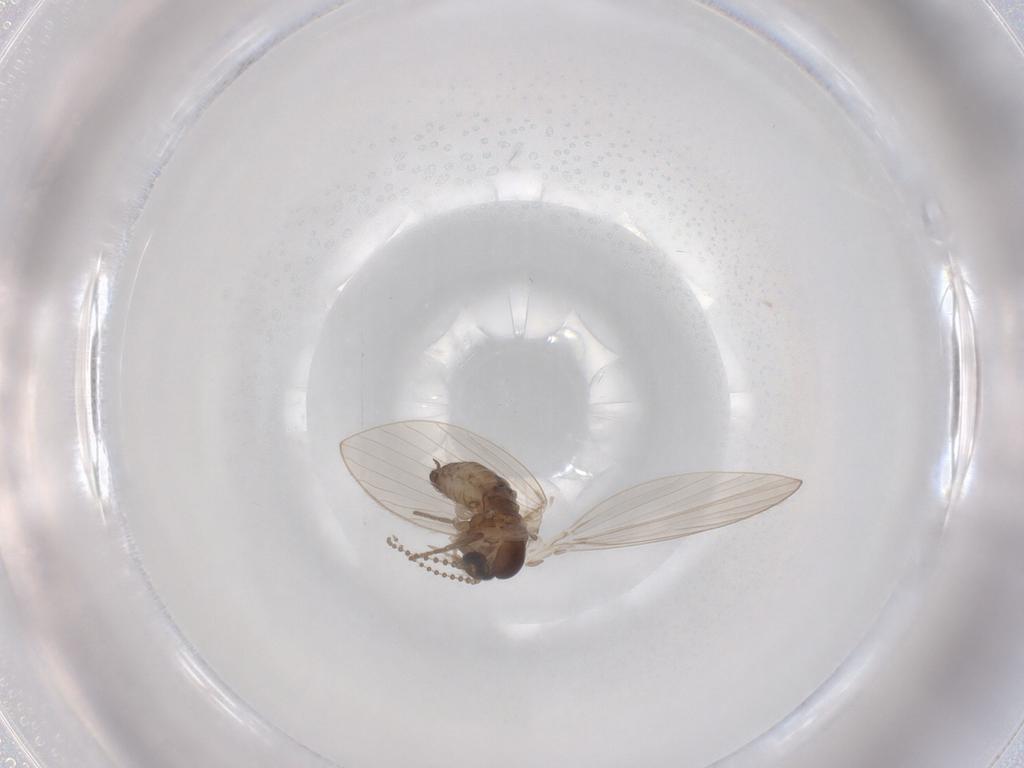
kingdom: Animalia
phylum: Arthropoda
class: Insecta
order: Diptera
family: Psychodidae
